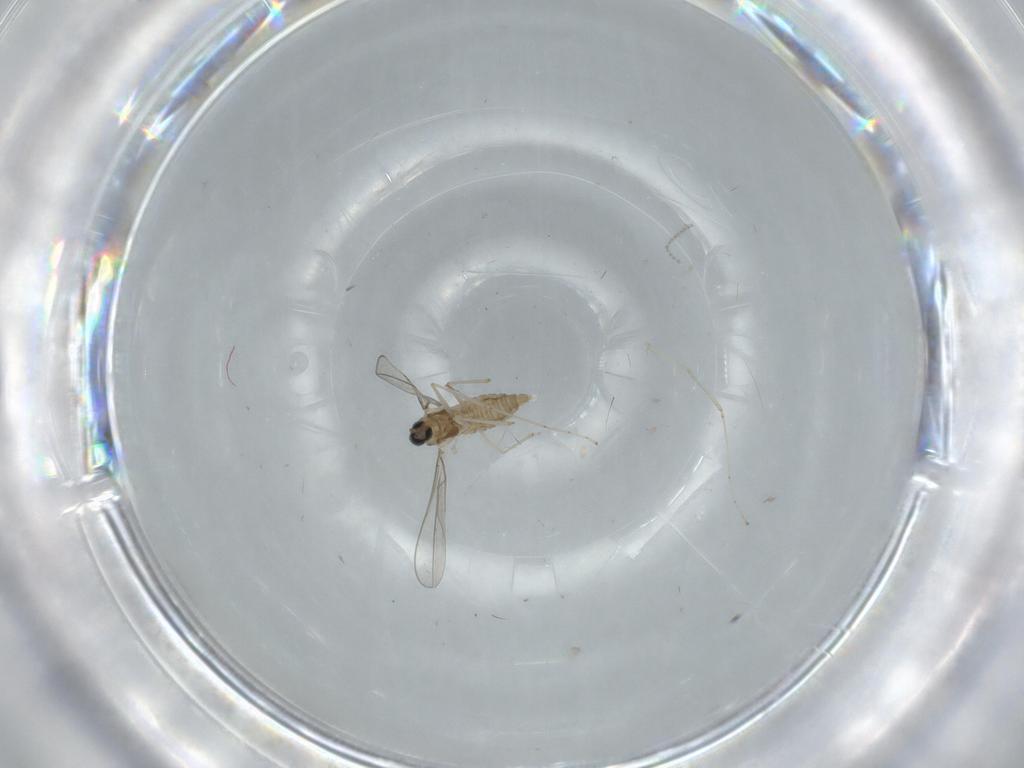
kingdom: Animalia
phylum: Arthropoda
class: Insecta
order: Diptera
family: Cecidomyiidae
